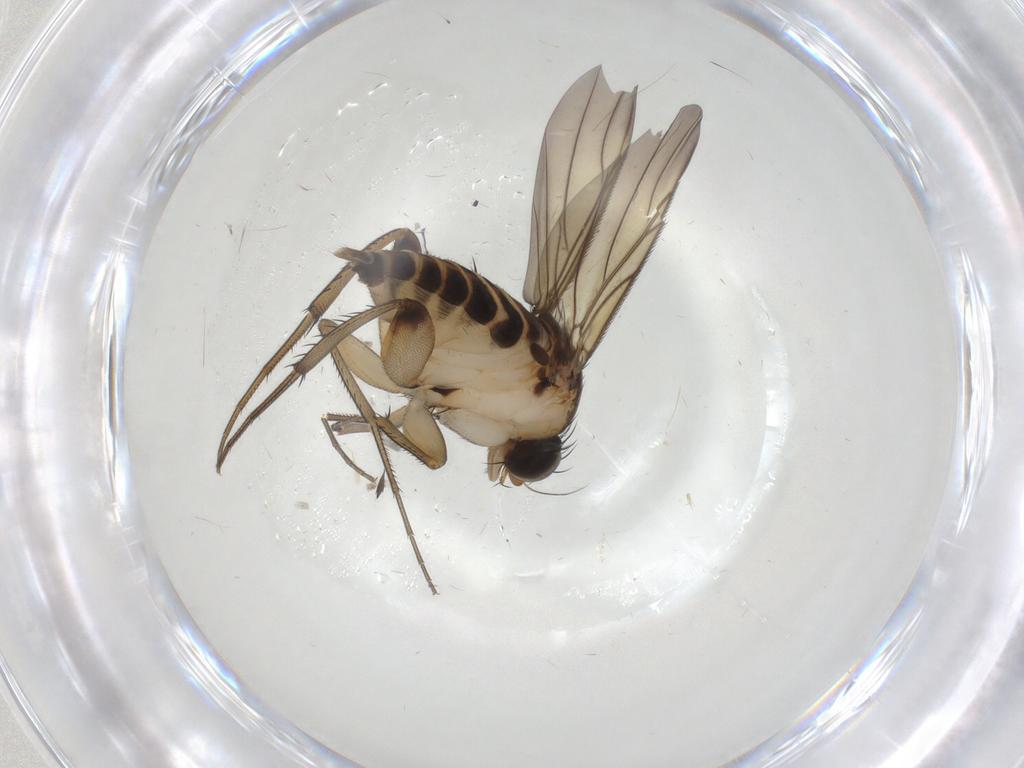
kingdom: Animalia
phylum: Arthropoda
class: Insecta
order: Diptera
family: Phoridae
